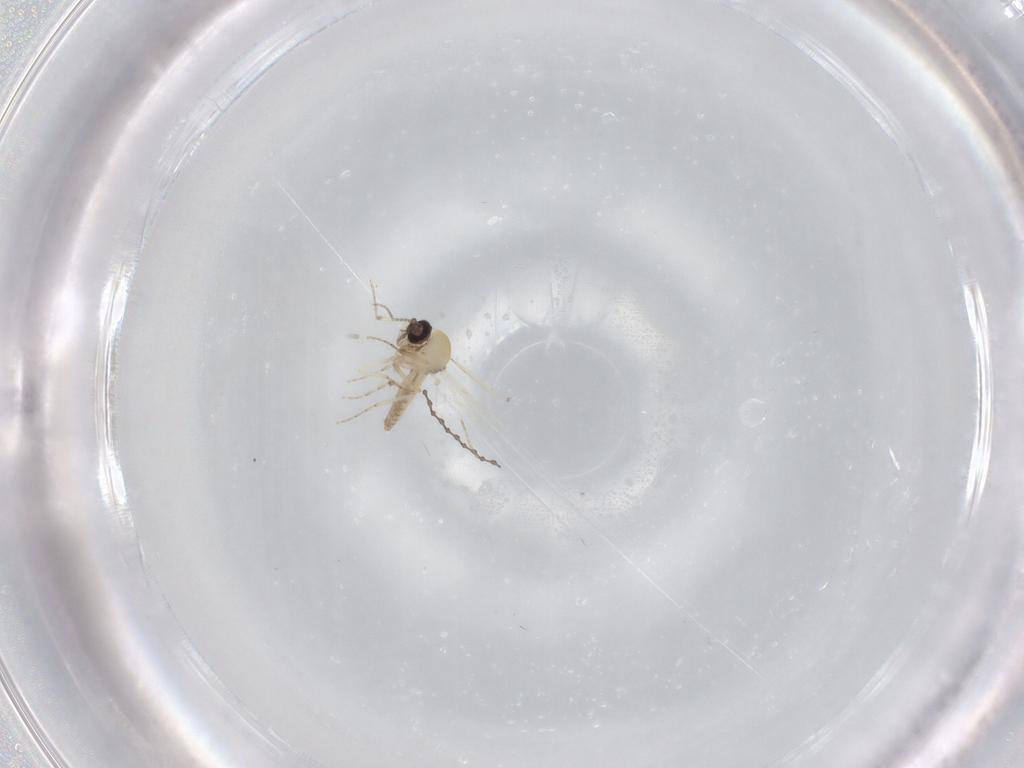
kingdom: Animalia
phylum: Arthropoda
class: Insecta
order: Diptera
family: Cecidomyiidae
